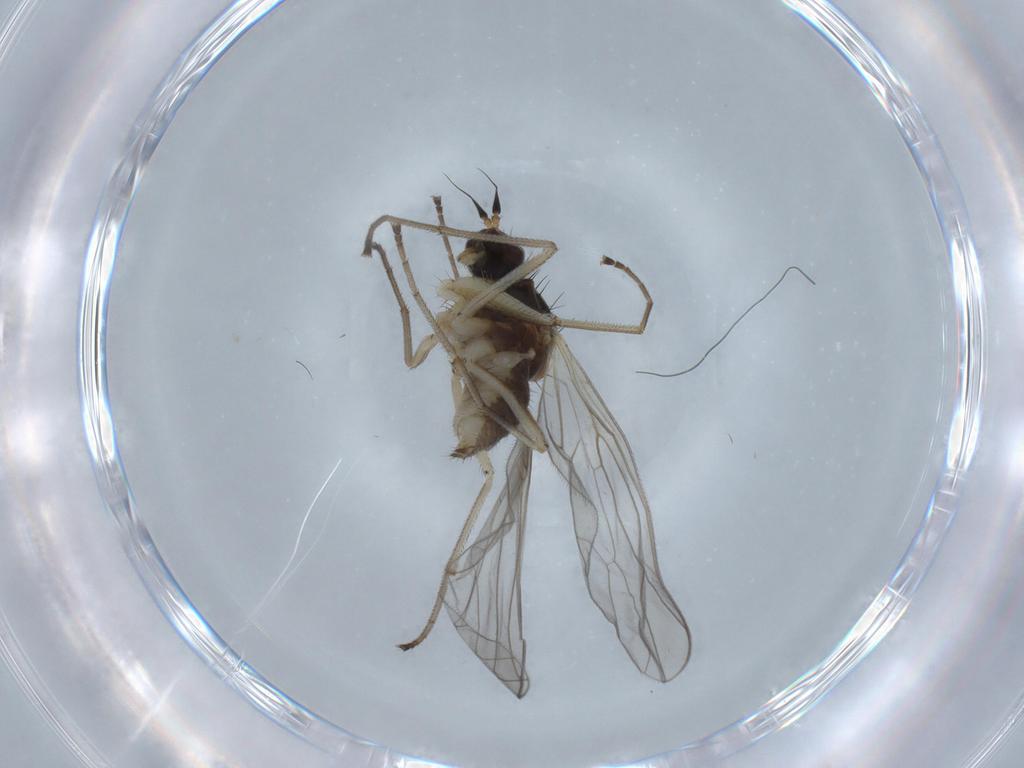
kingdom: Animalia
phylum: Arthropoda
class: Insecta
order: Diptera
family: Empididae
